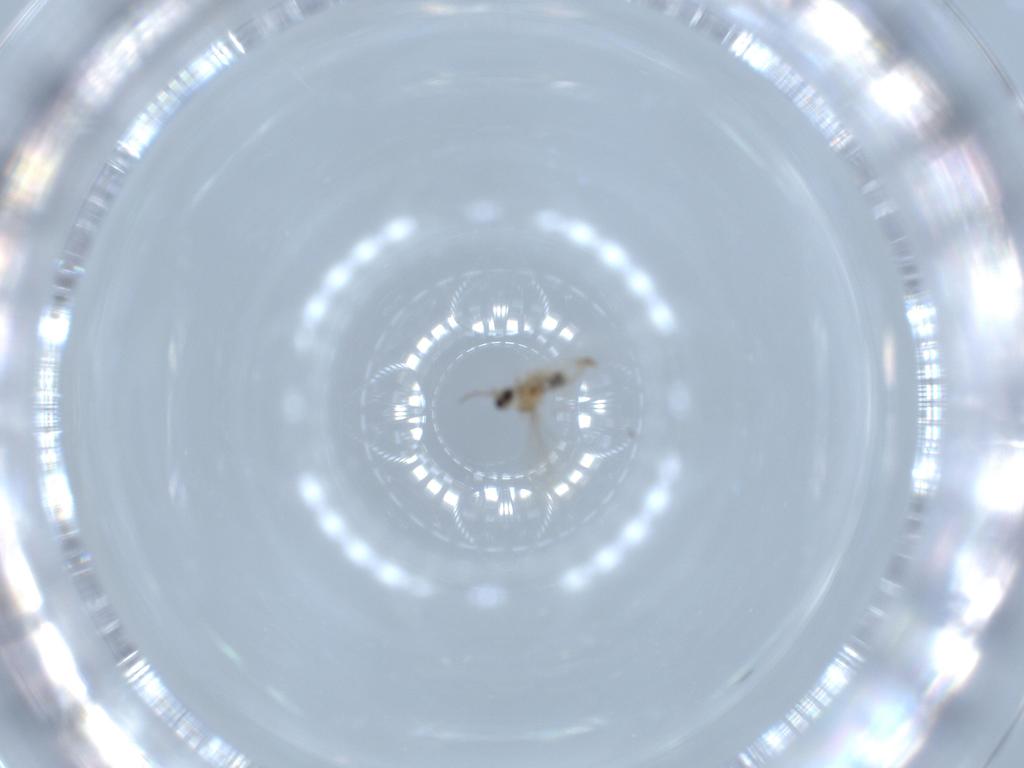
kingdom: Animalia
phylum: Arthropoda
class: Insecta
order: Diptera
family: Cecidomyiidae
